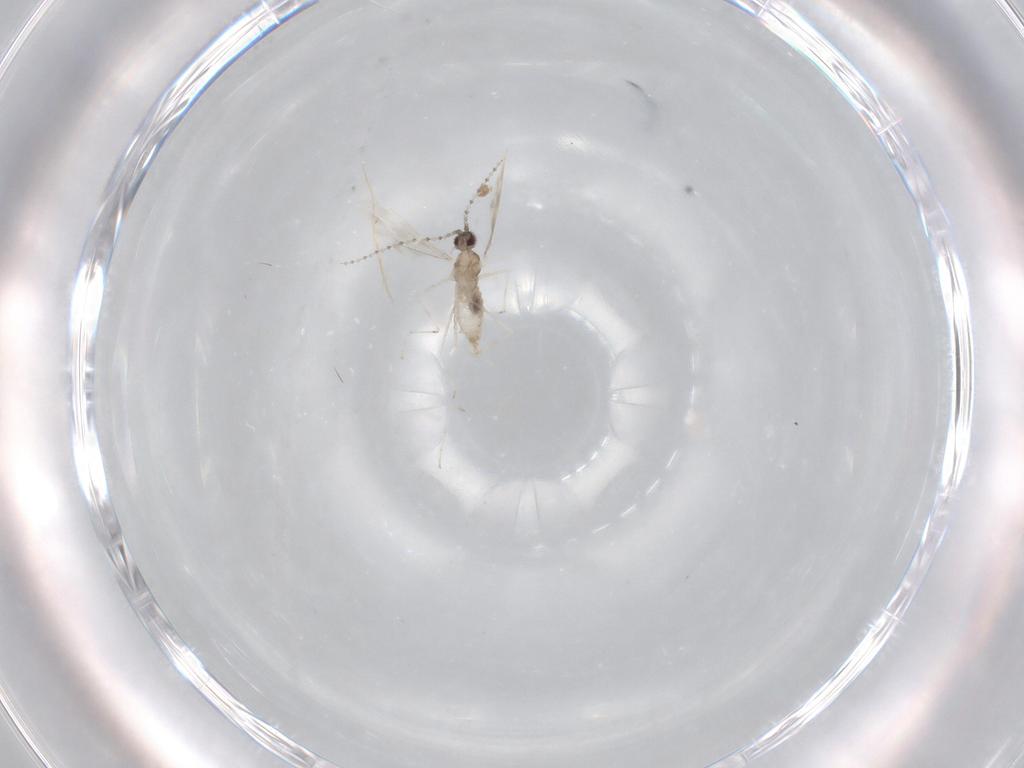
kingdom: Animalia
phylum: Arthropoda
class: Insecta
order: Diptera
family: Cecidomyiidae
